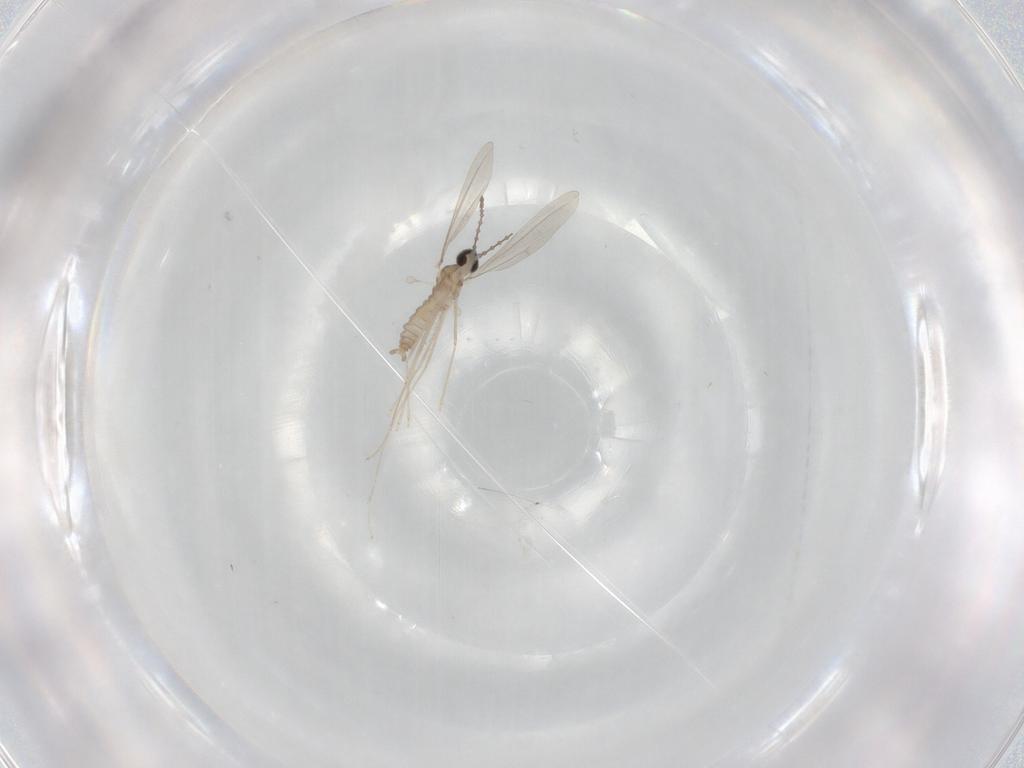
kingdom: Animalia
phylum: Arthropoda
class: Insecta
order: Diptera
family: Cecidomyiidae
